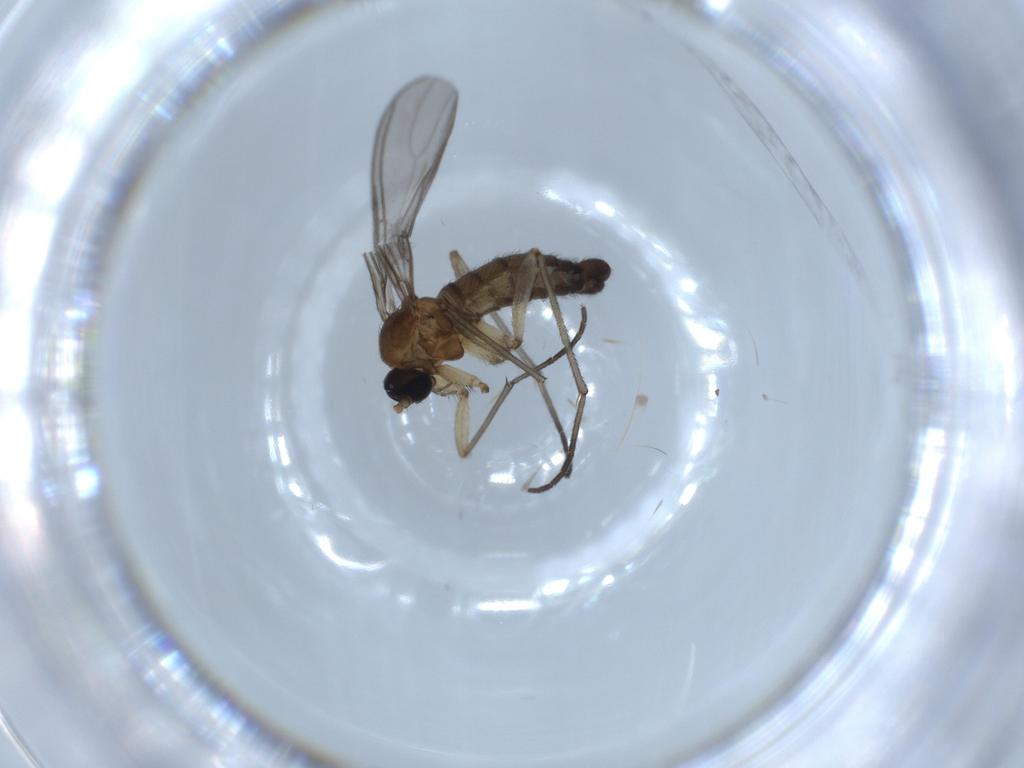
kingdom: Animalia
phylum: Arthropoda
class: Insecta
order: Diptera
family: Sciaridae
